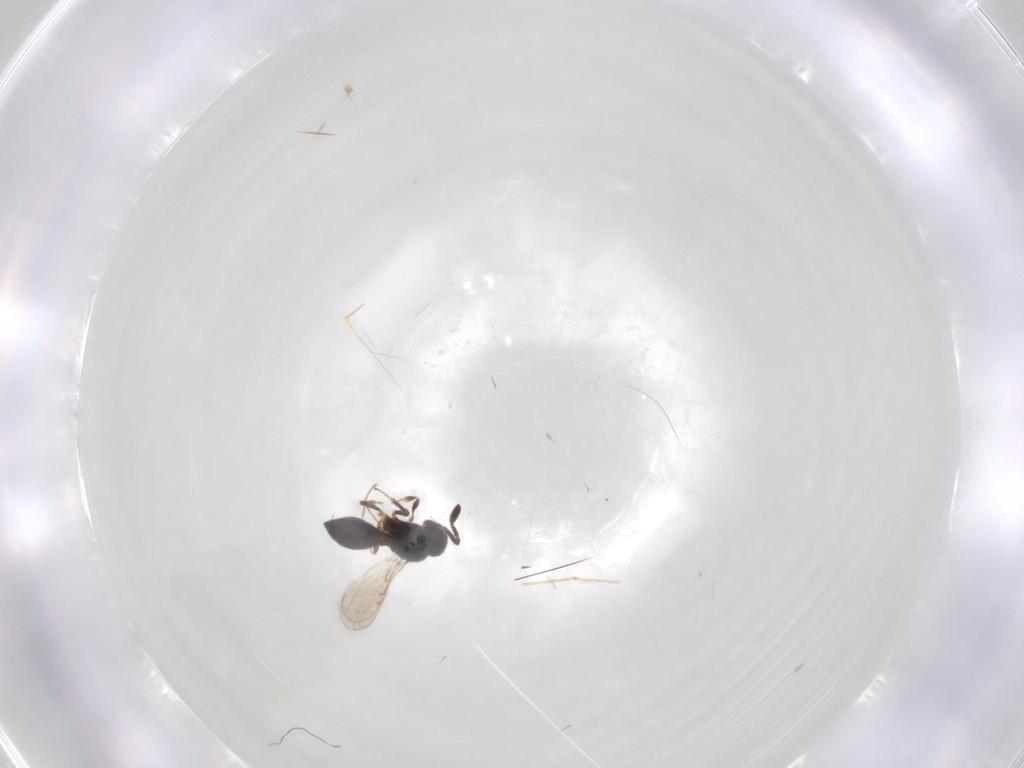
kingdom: Animalia
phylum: Arthropoda
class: Insecta
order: Hymenoptera
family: Scelionidae
